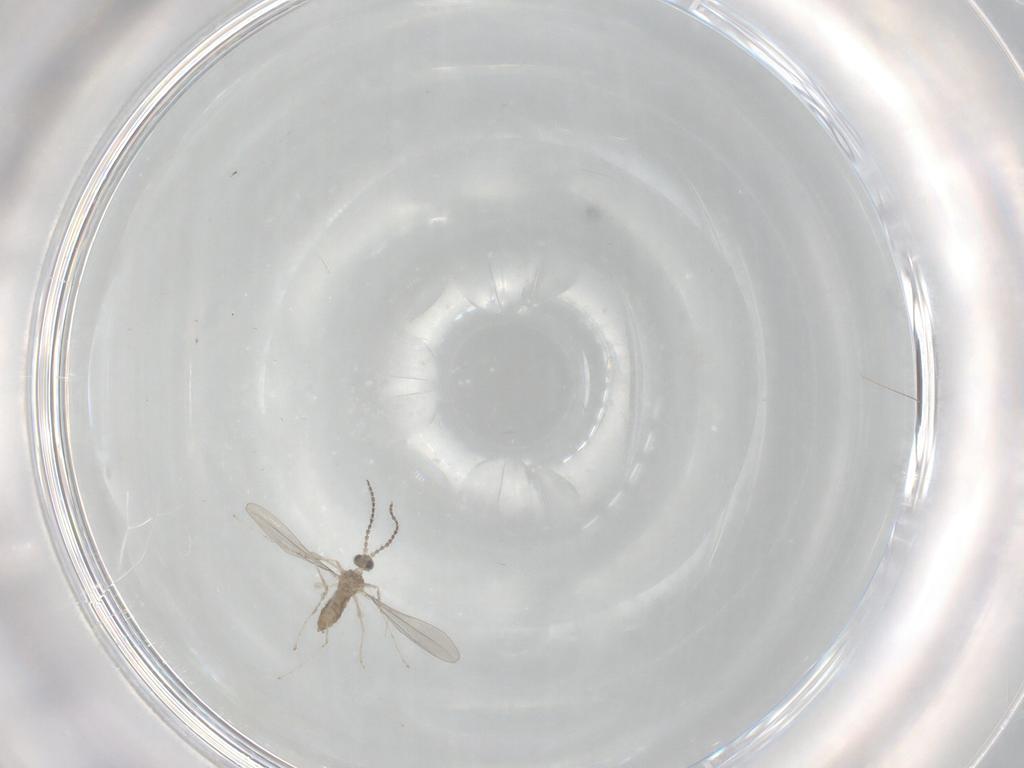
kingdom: Animalia
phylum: Arthropoda
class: Insecta
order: Diptera
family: Cecidomyiidae
